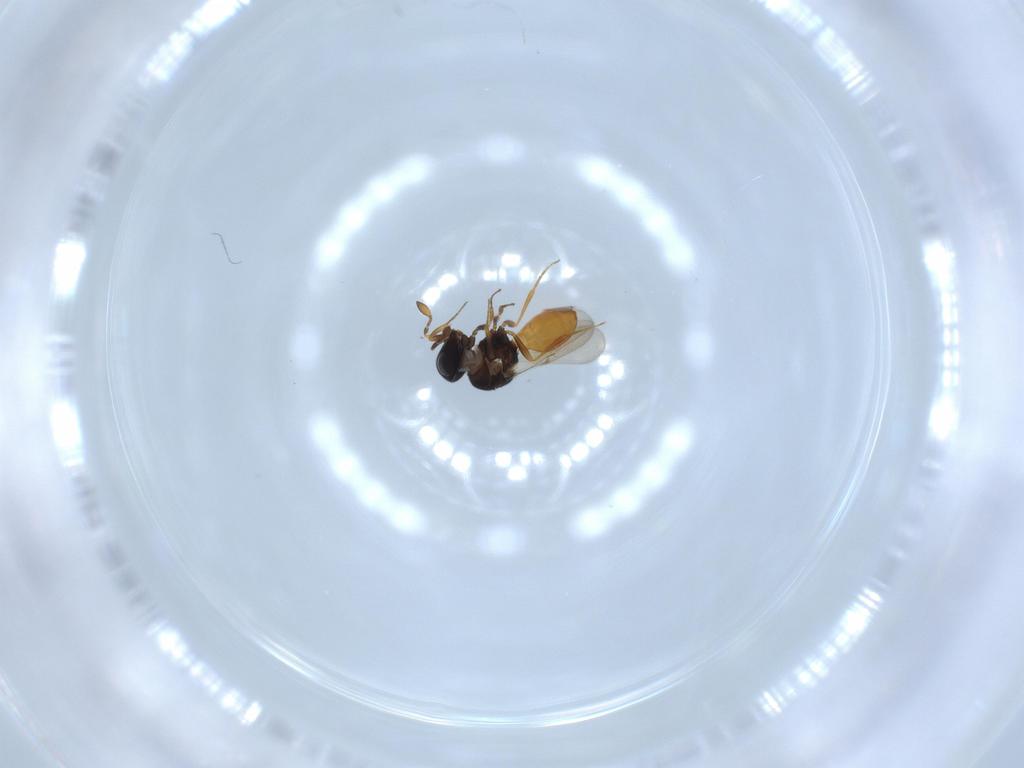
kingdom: Animalia
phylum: Arthropoda
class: Insecta
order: Hymenoptera
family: Scelionidae
